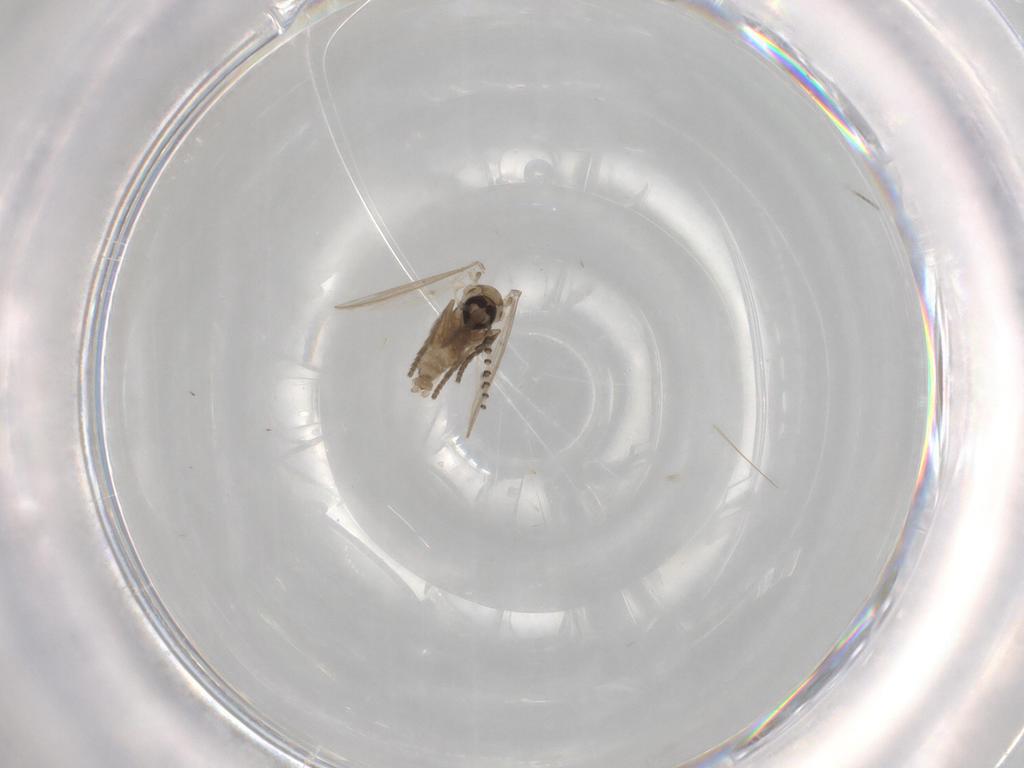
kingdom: Animalia
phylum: Arthropoda
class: Insecta
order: Diptera
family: Psychodidae
